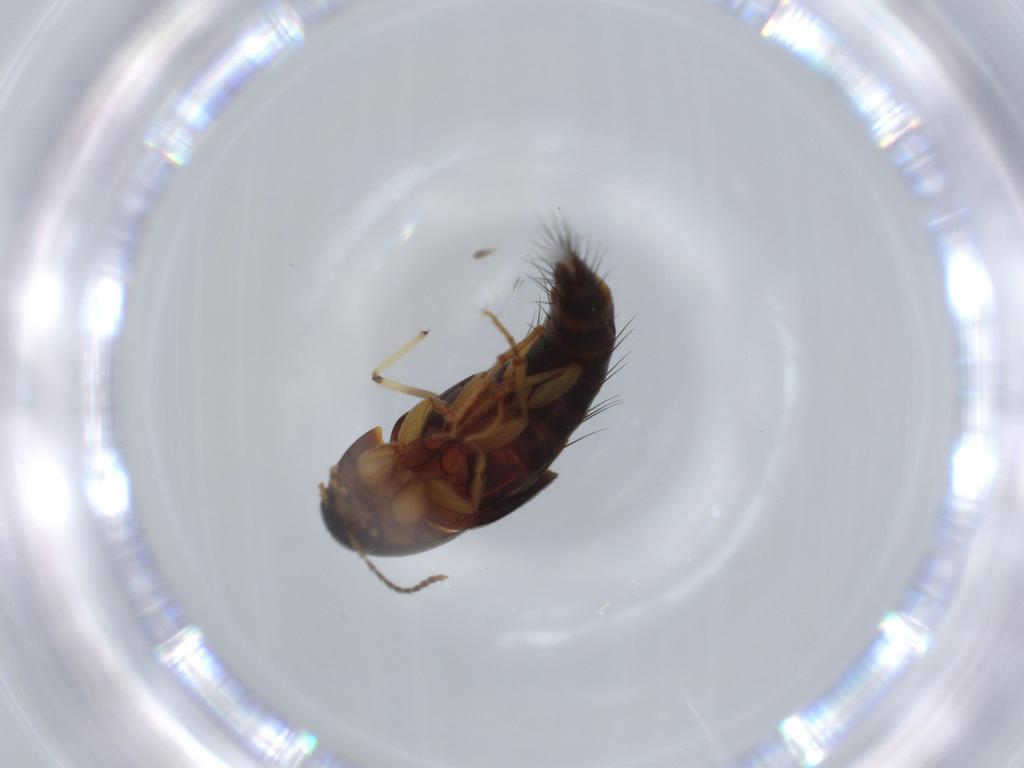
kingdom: Animalia
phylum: Arthropoda
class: Insecta
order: Coleoptera
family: Staphylinidae
